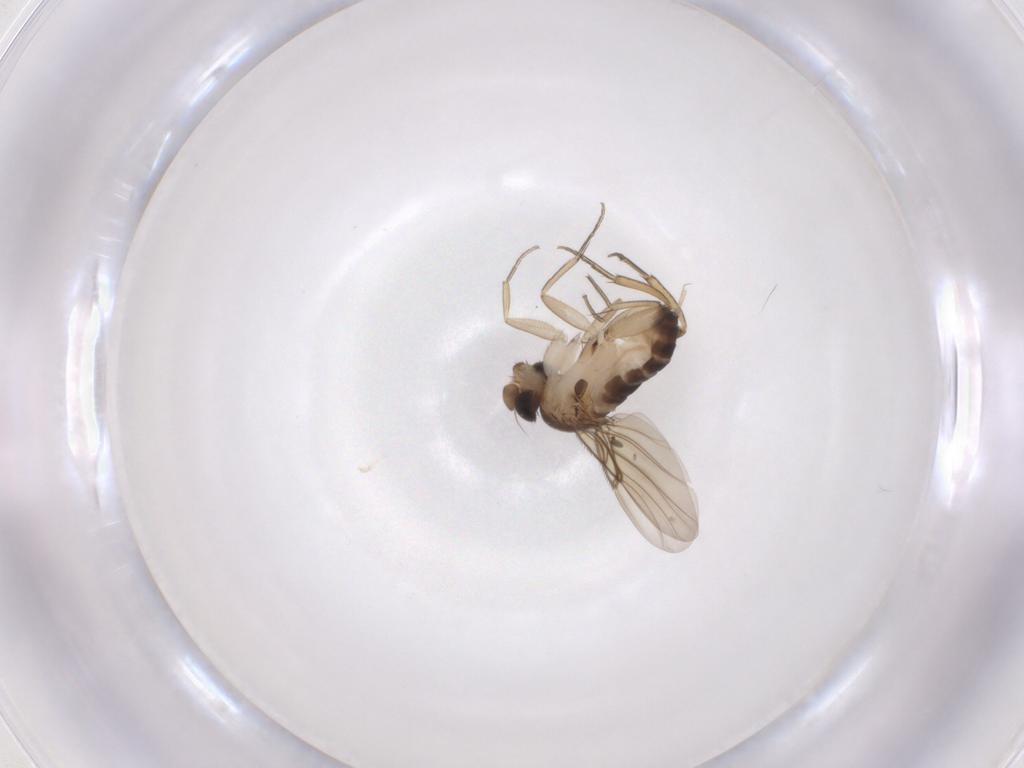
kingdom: Animalia
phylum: Arthropoda
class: Insecta
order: Diptera
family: Phoridae
